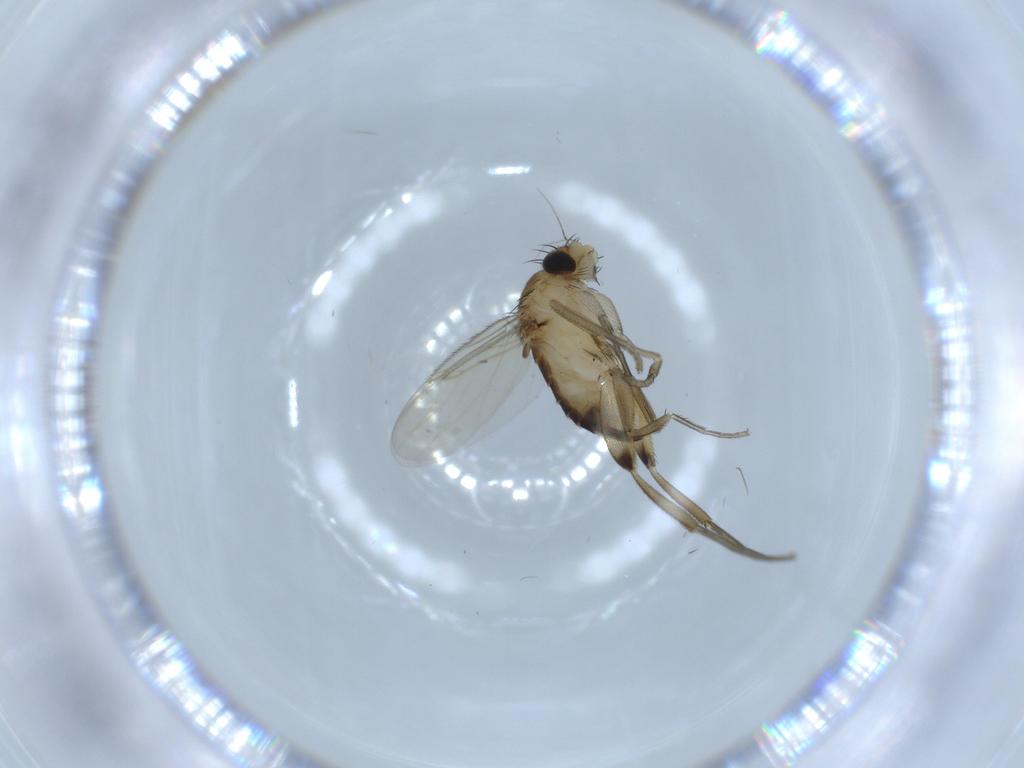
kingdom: Animalia
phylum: Arthropoda
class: Insecta
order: Diptera
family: Phoridae
